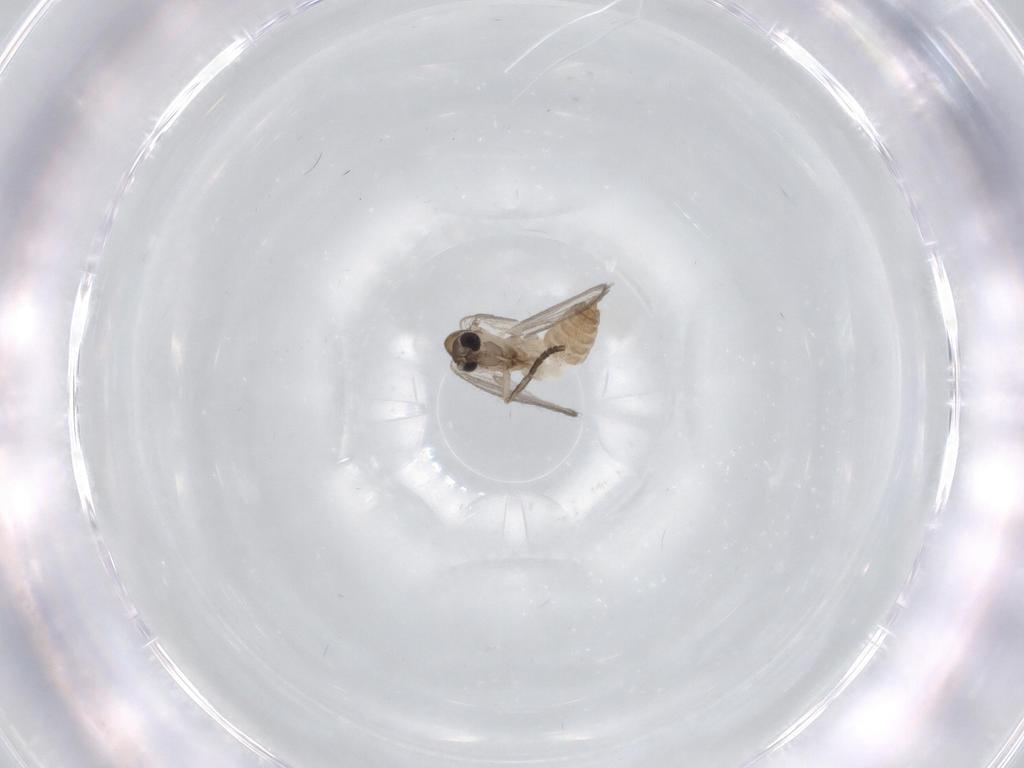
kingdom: Animalia
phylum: Arthropoda
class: Insecta
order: Diptera
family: Psychodidae
